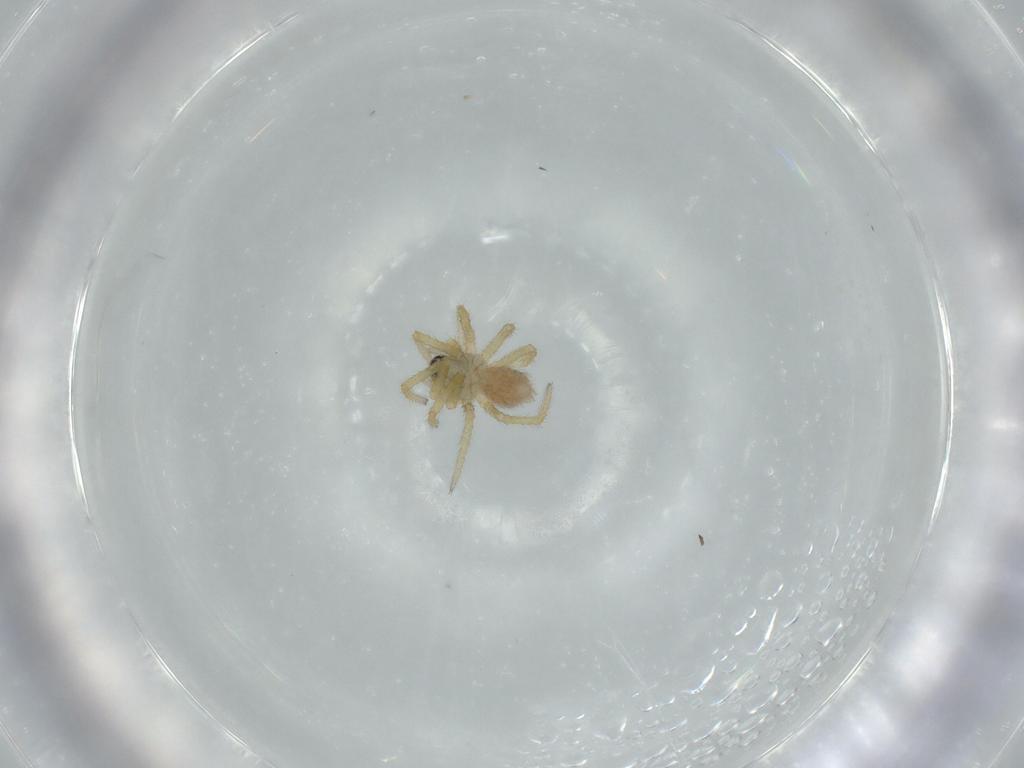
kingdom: Animalia
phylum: Arthropoda
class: Arachnida
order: Araneae
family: Linyphiidae
